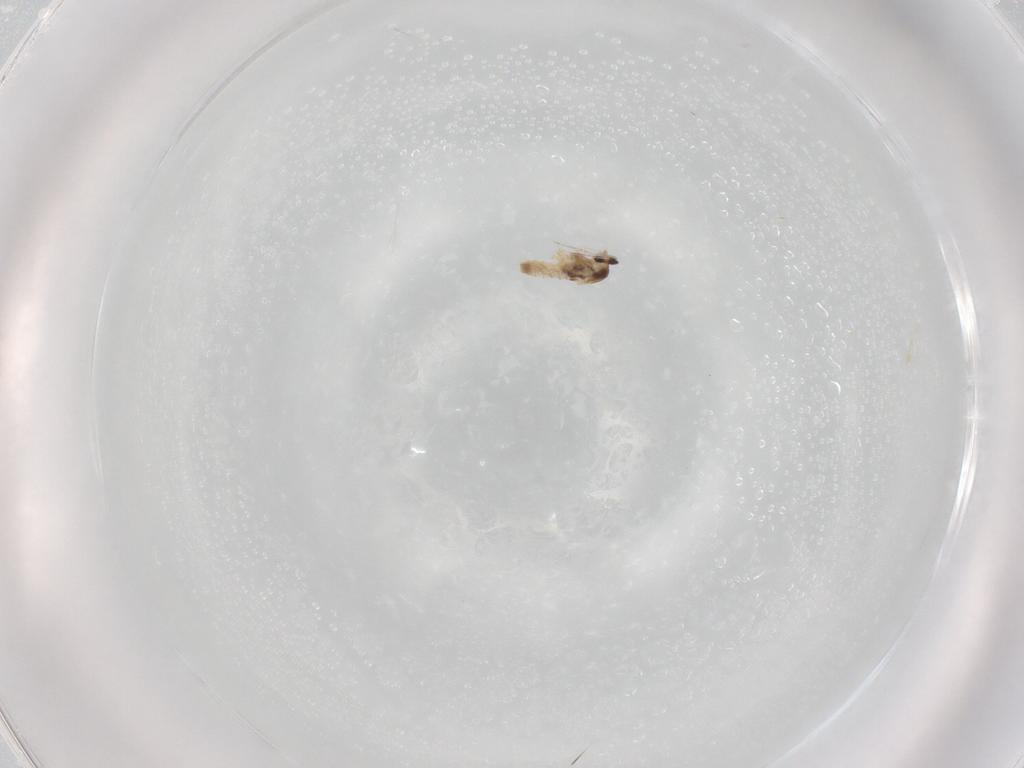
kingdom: Animalia
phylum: Arthropoda
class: Insecta
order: Diptera
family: Cecidomyiidae
